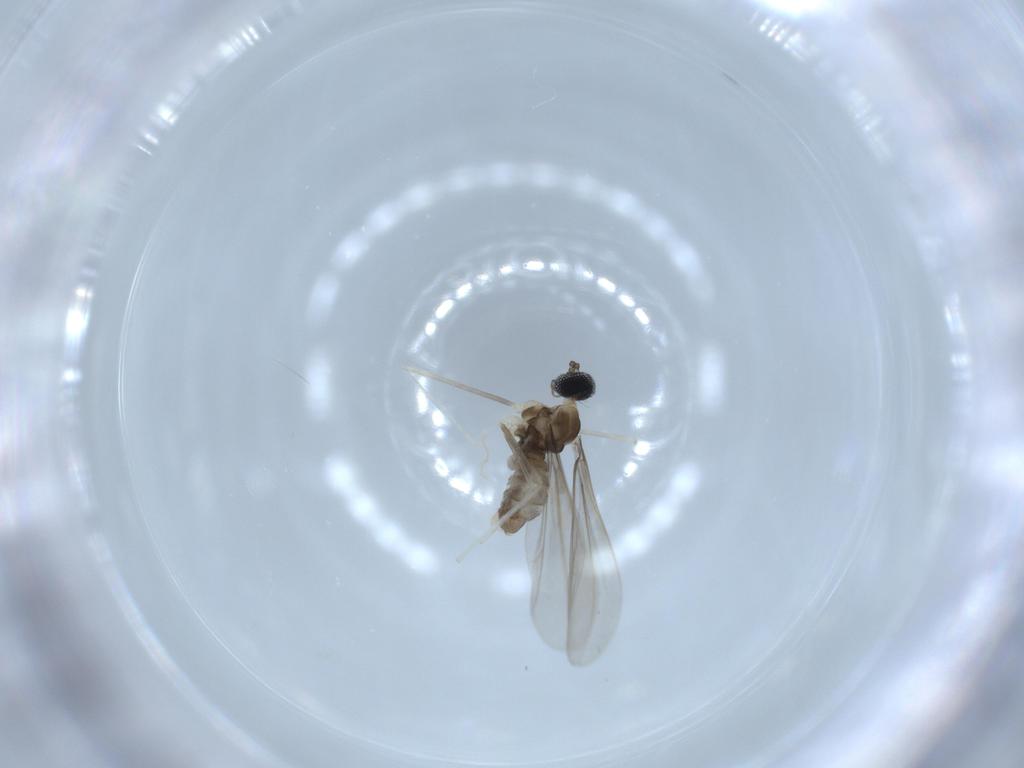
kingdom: Animalia
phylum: Arthropoda
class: Insecta
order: Diptera
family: Cecidomyiidae
